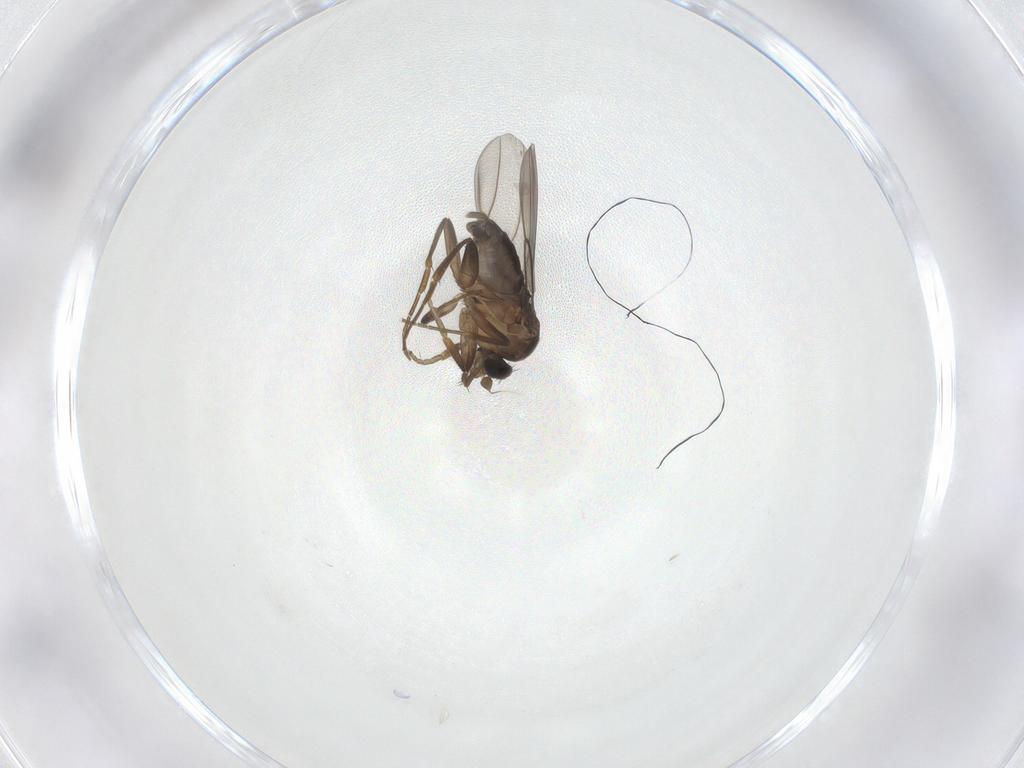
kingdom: Animalia
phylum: Arthropoda
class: Insecta
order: Diptera
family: Phoridae
